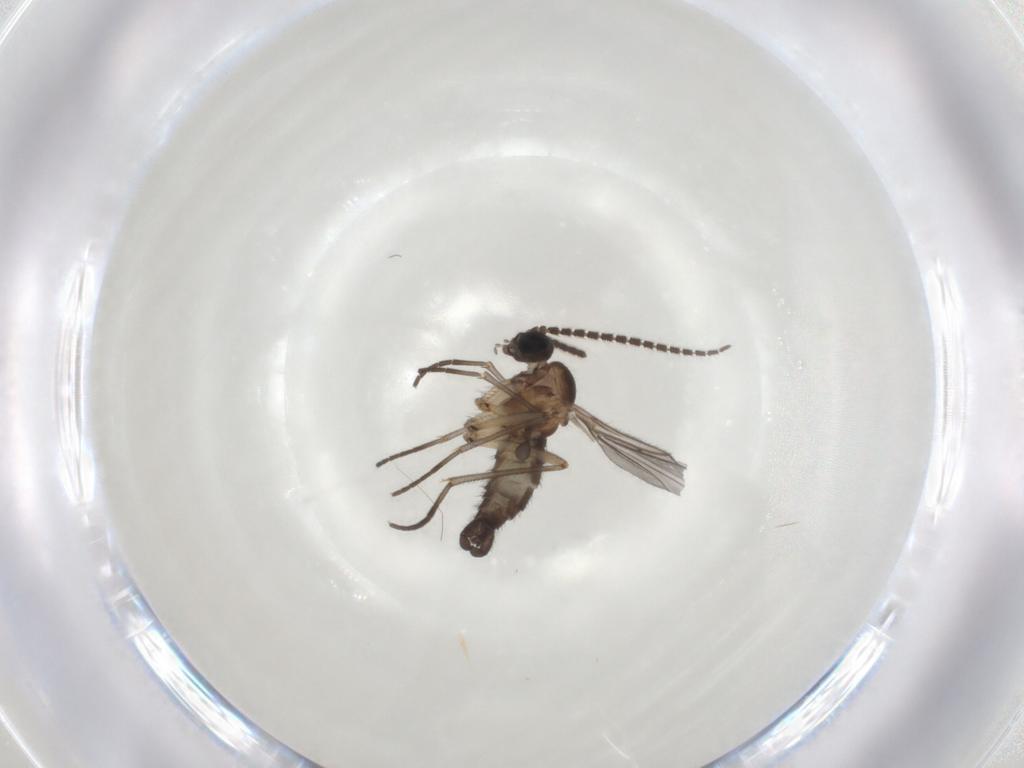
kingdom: Animalia
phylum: Arthropoda
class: Insecta
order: Diptera
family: Sciaridae
